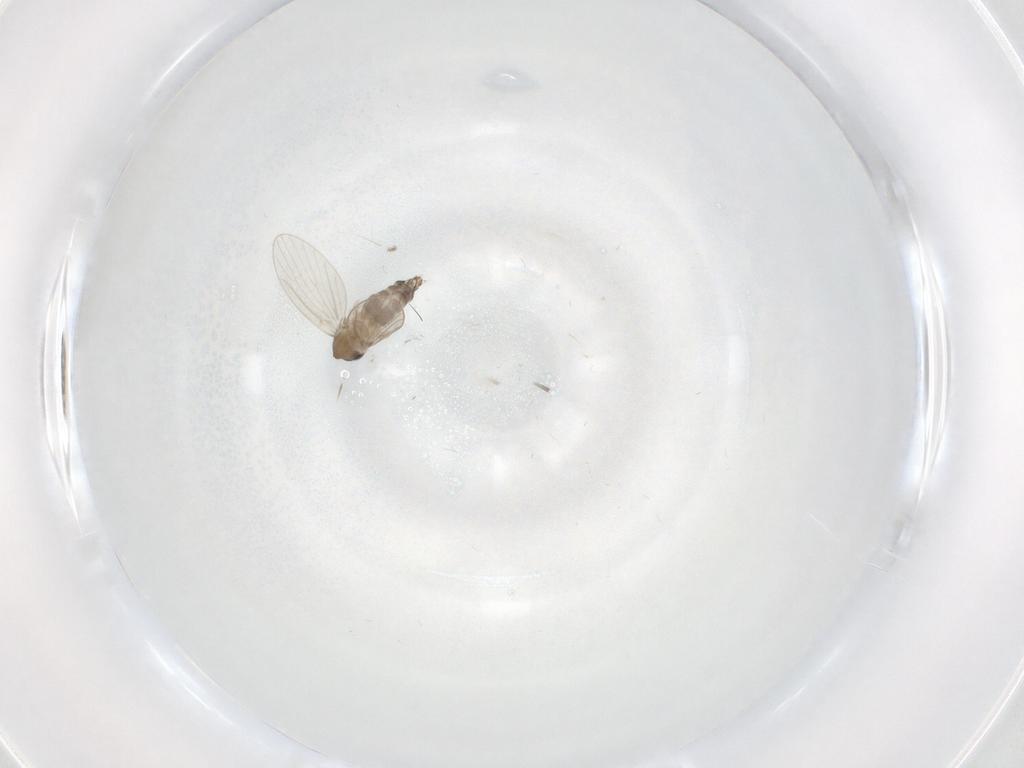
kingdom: Animalia
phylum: Arthropoda
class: Insecta
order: Diptera
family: Chironomidae
